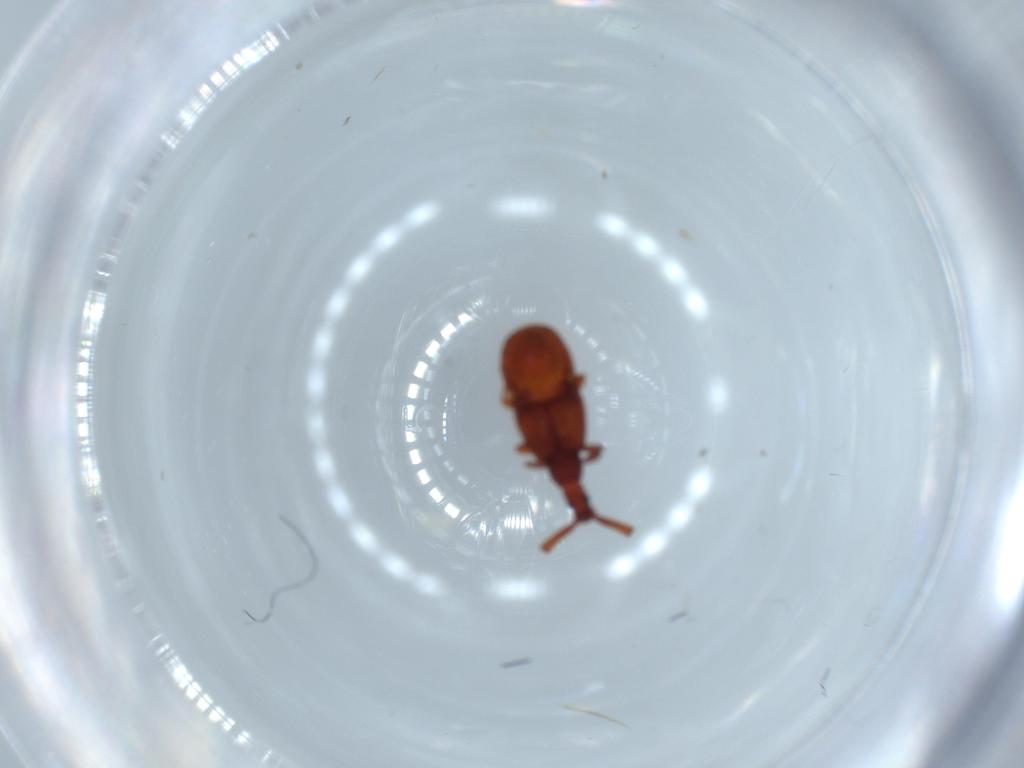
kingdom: Animalia
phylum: Arthropoda
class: Insecta
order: Coleoptera
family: Staphylinidae
